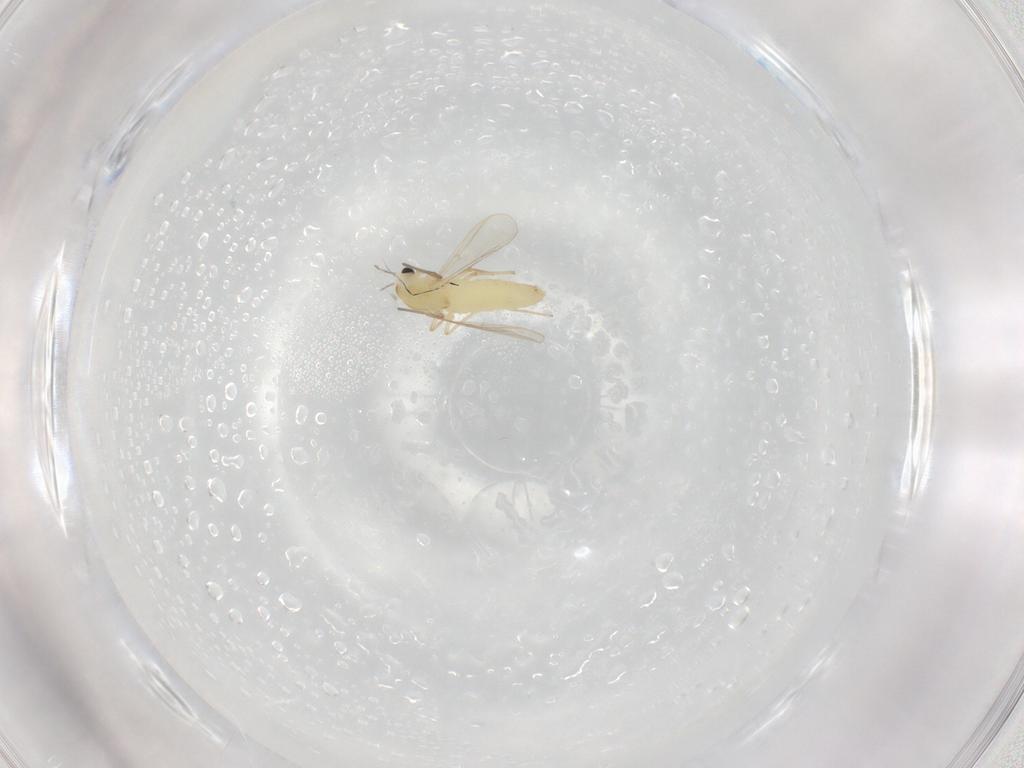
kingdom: Animalia
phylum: Arthropoda
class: Insecta
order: Diptera
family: Chironomidae
